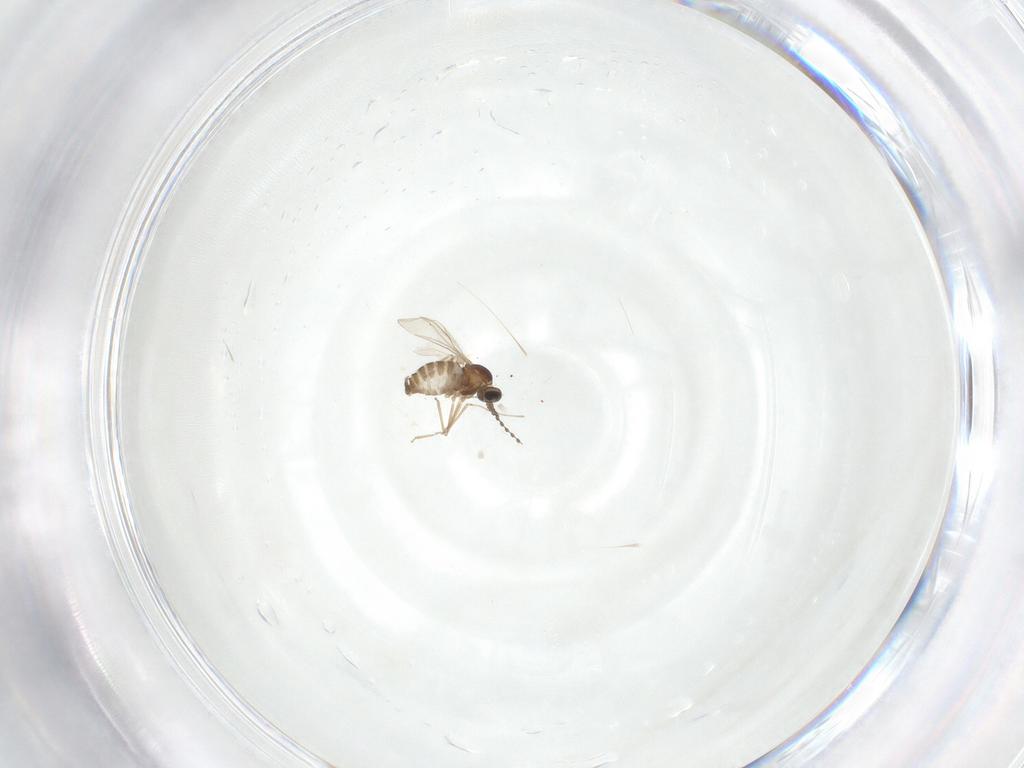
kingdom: Animalia
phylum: Arthropoda
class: Insecta
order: Diptera
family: Cecidomyiidae
